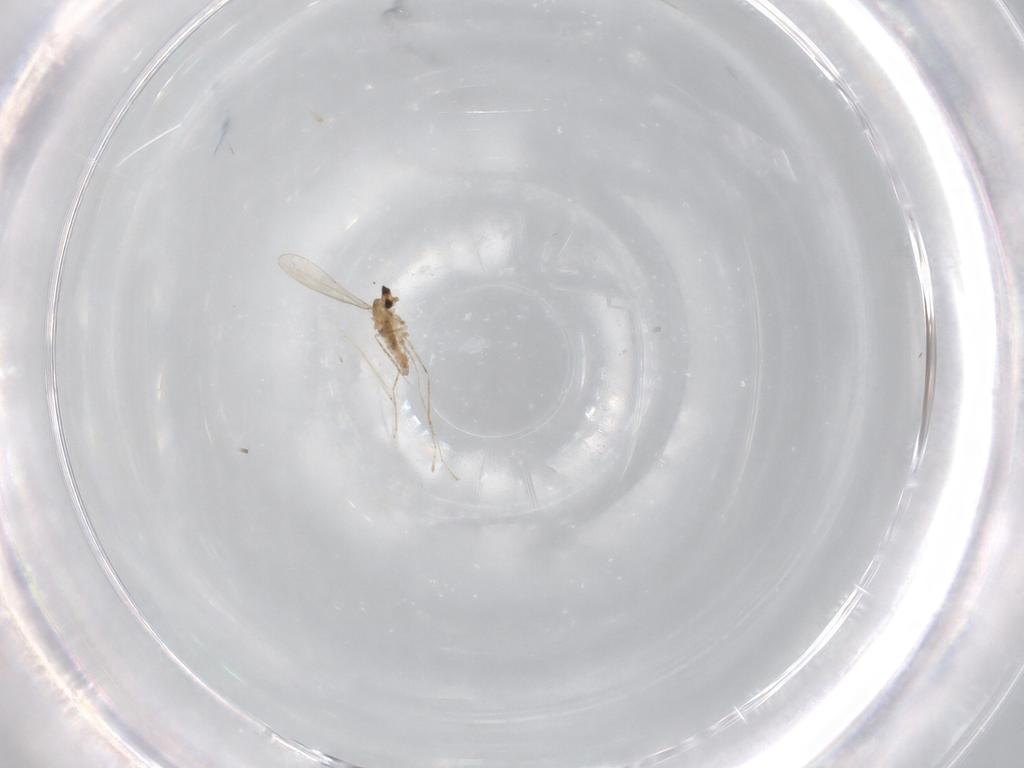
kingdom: Animalia
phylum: Arthropoda
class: Insecta
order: Diptera
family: Cecidomyiidae
